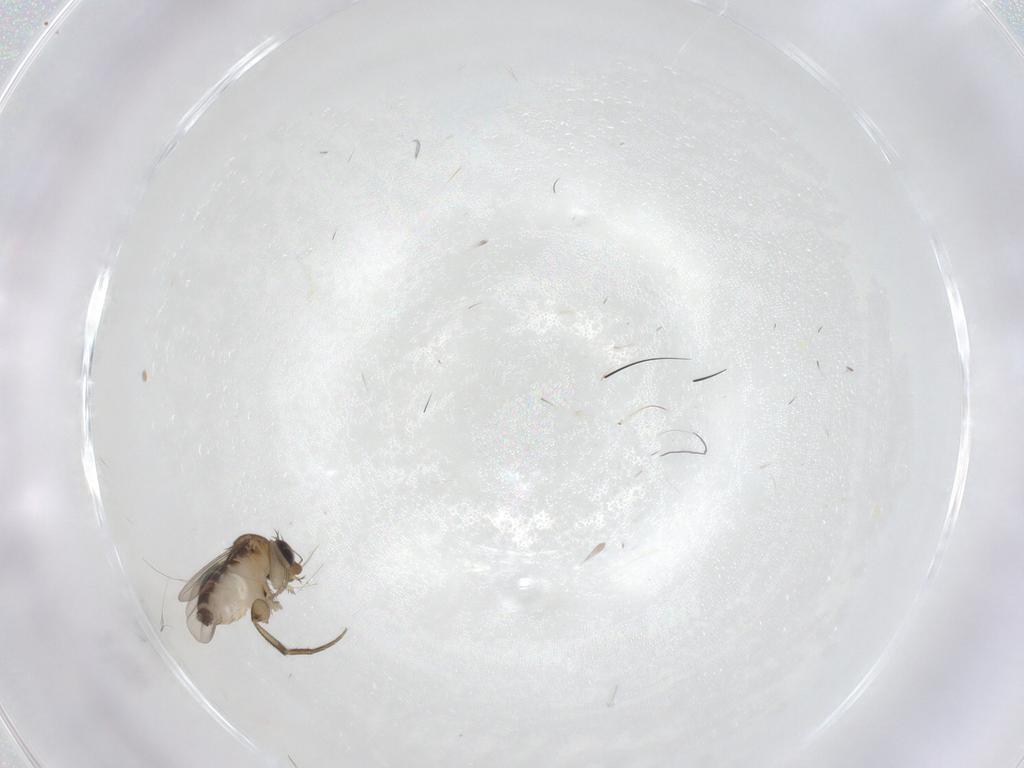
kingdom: Animalia
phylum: Arthropoda
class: Insecta
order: Diptera
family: Phoridae
